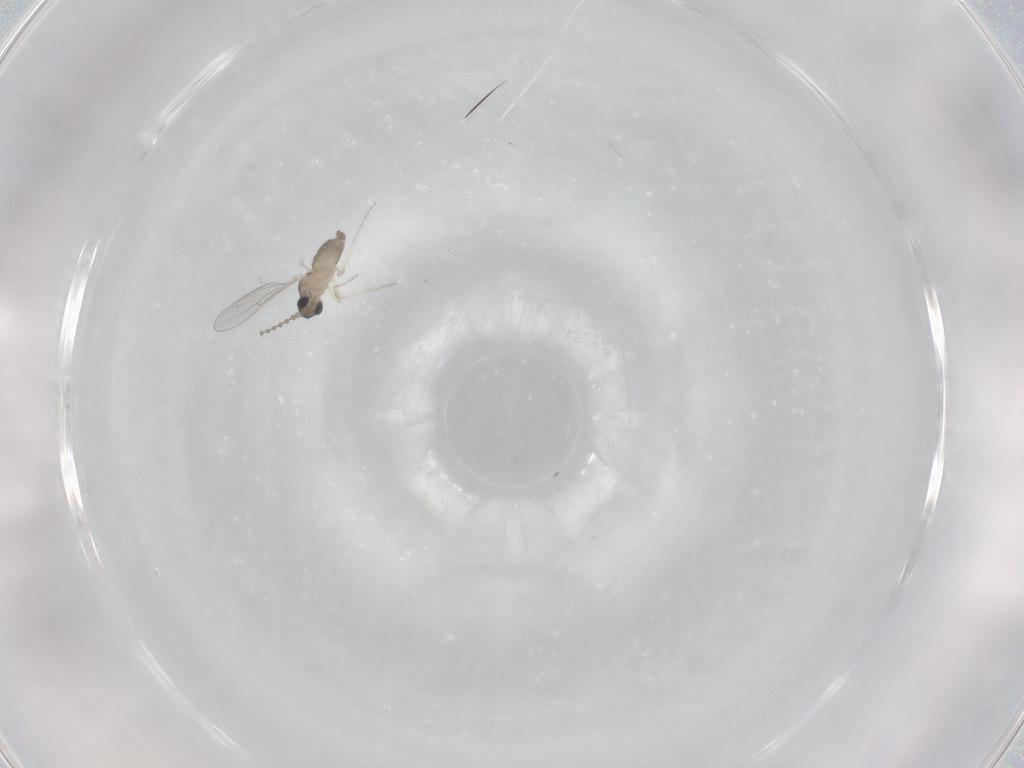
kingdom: Animalia
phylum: Arthropoda
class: Insecta
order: Diptera
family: Cecidomyiidae
